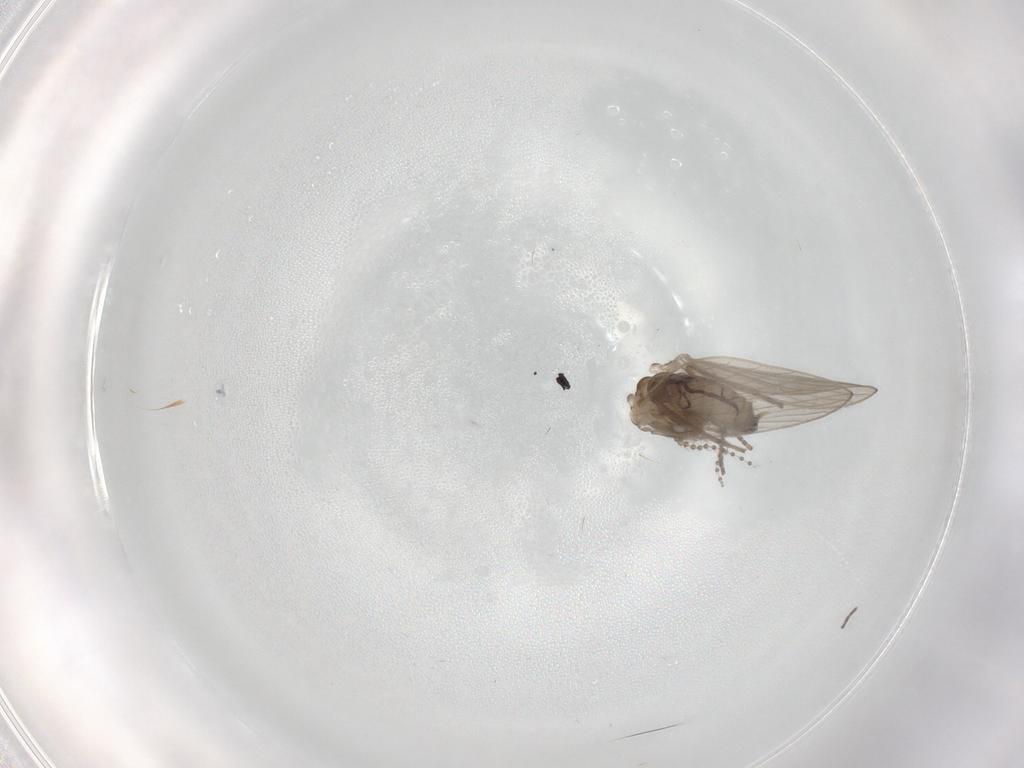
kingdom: Animalia
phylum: Arthropoda
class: Insecta
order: Diptera
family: Psychodidae
